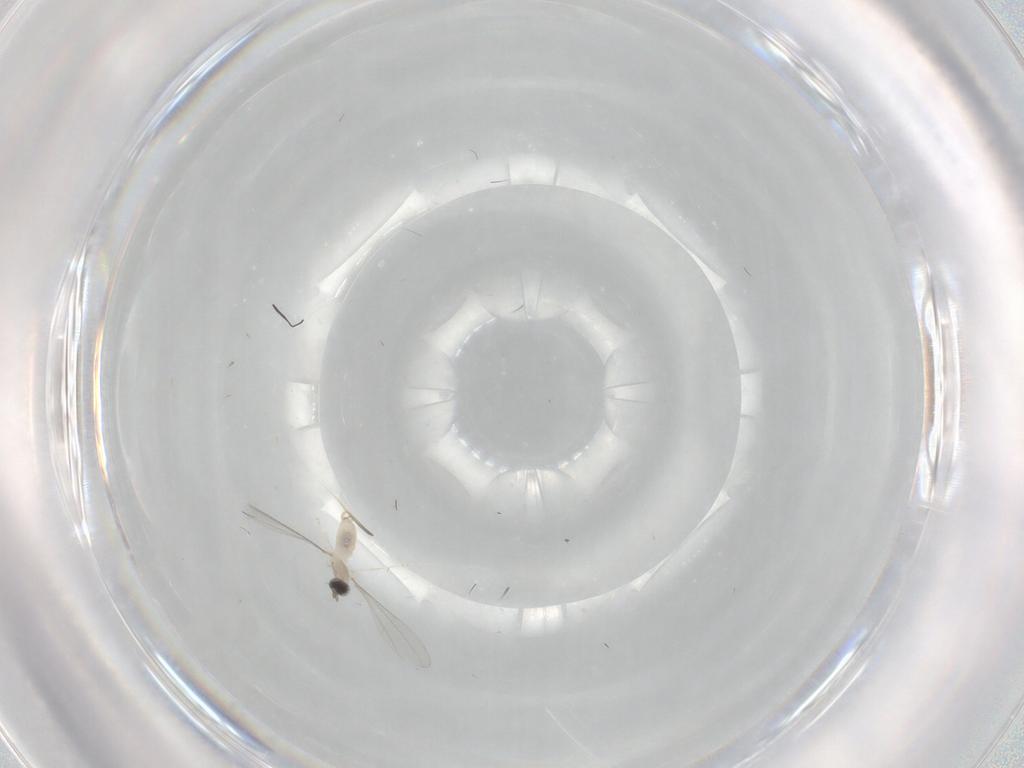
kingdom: Animalia
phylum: Arthropoda
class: Insecta
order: Diptera
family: Cecidomyiidae
